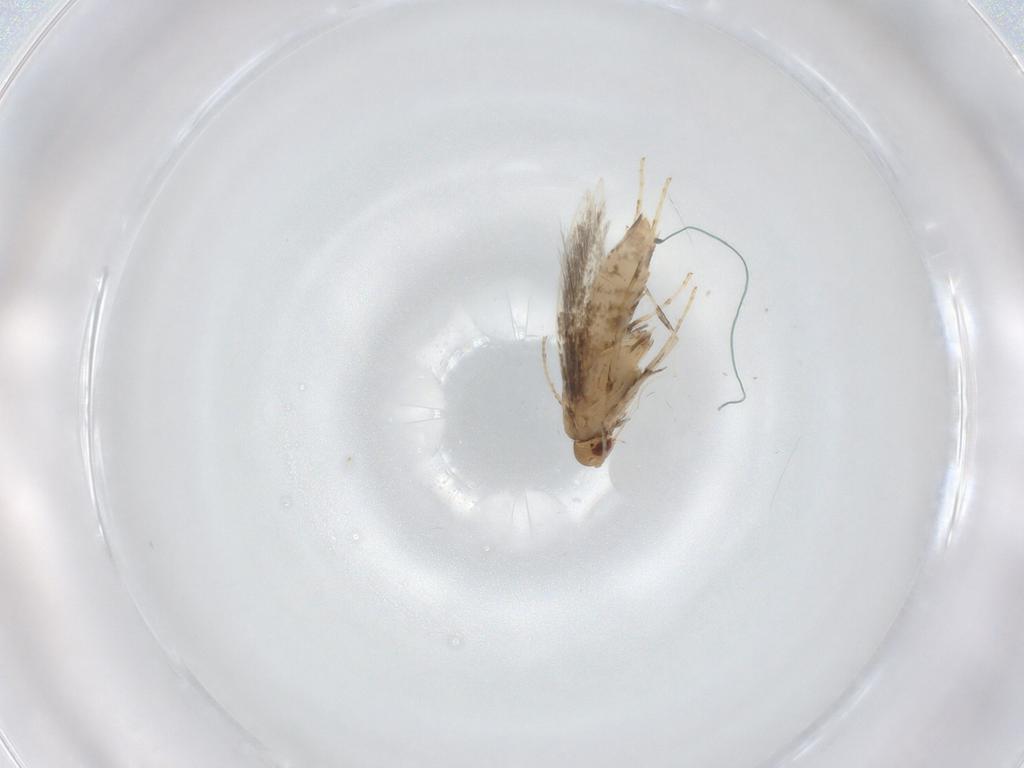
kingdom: Animalia
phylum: Arthropoda
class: Insecta
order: Lepidoptera
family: Gracillariidae
